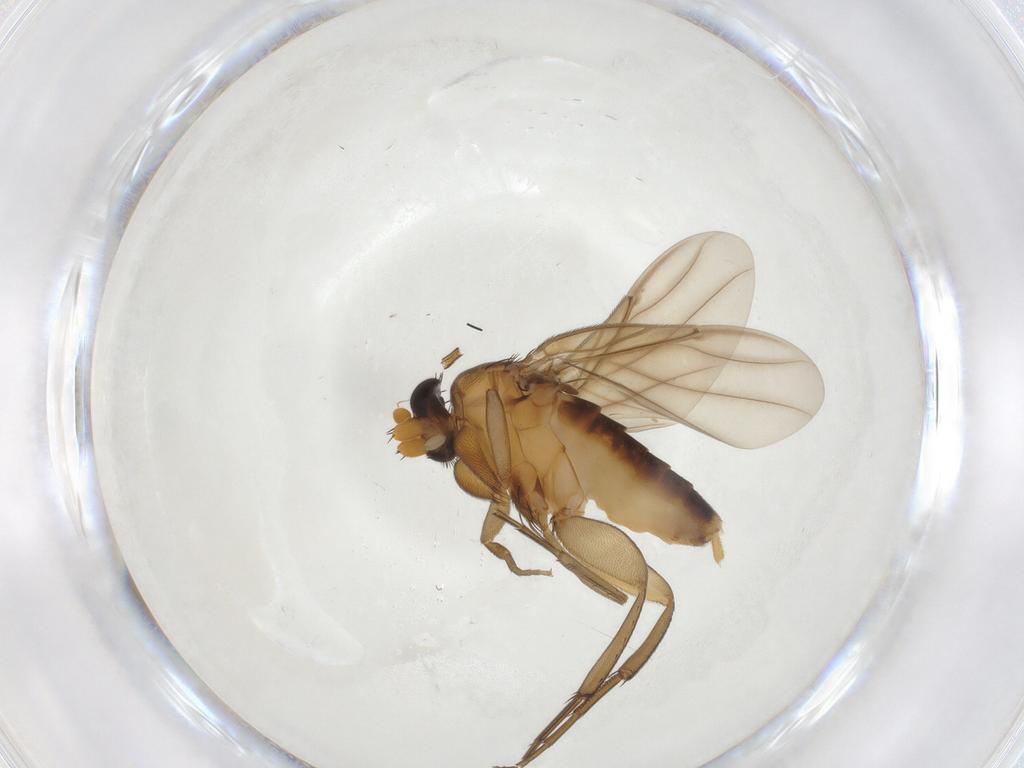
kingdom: Animalia
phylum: Arthropoda
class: Insecta
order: Diptera
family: Psychodidae
